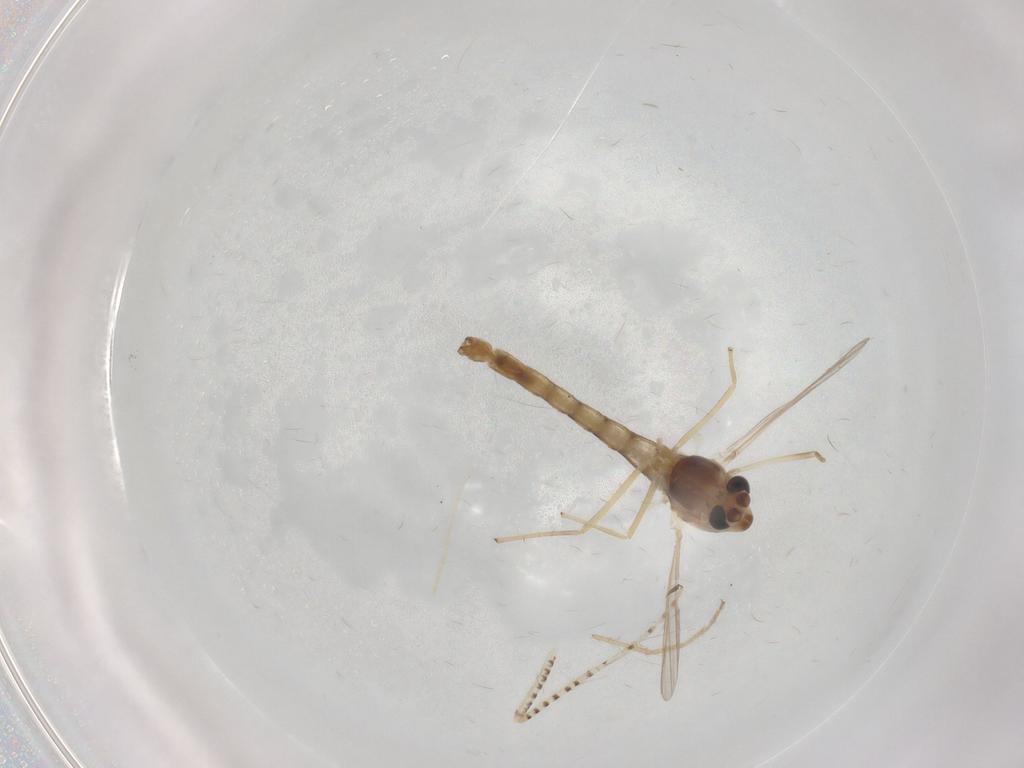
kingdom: Animalia
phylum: Arthropoda
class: Insecta
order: Diptera
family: Chironomidae
